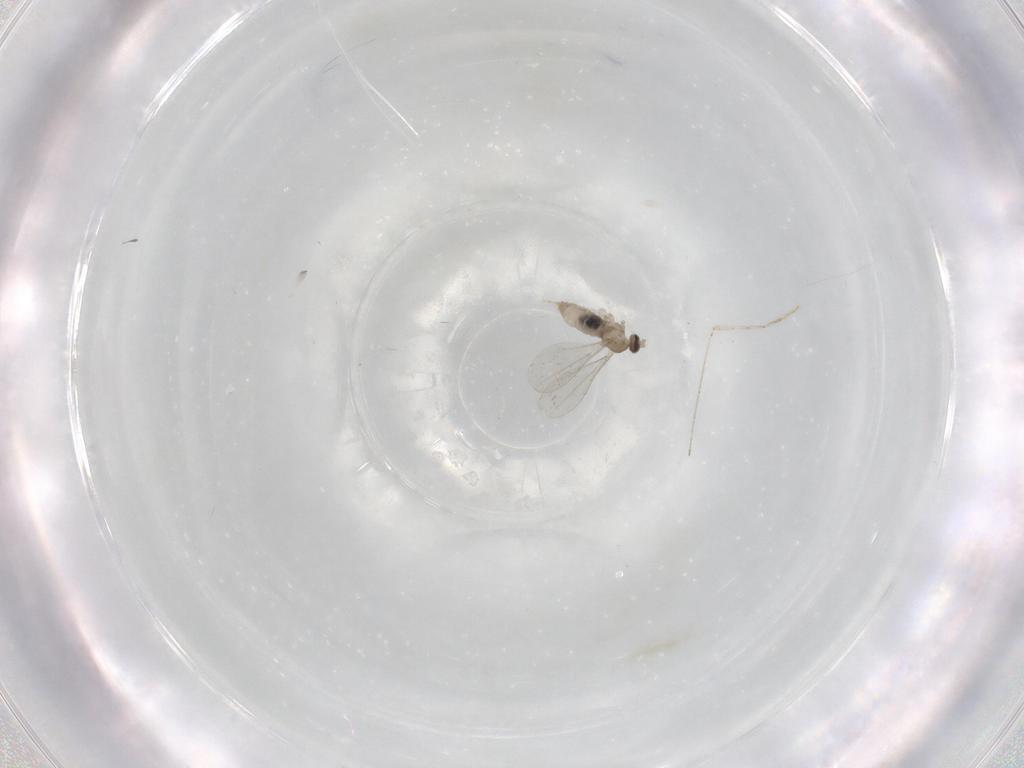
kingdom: Animalia
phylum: Arthropoda
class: Insecta
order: Diptera
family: Cecidomyiidae
